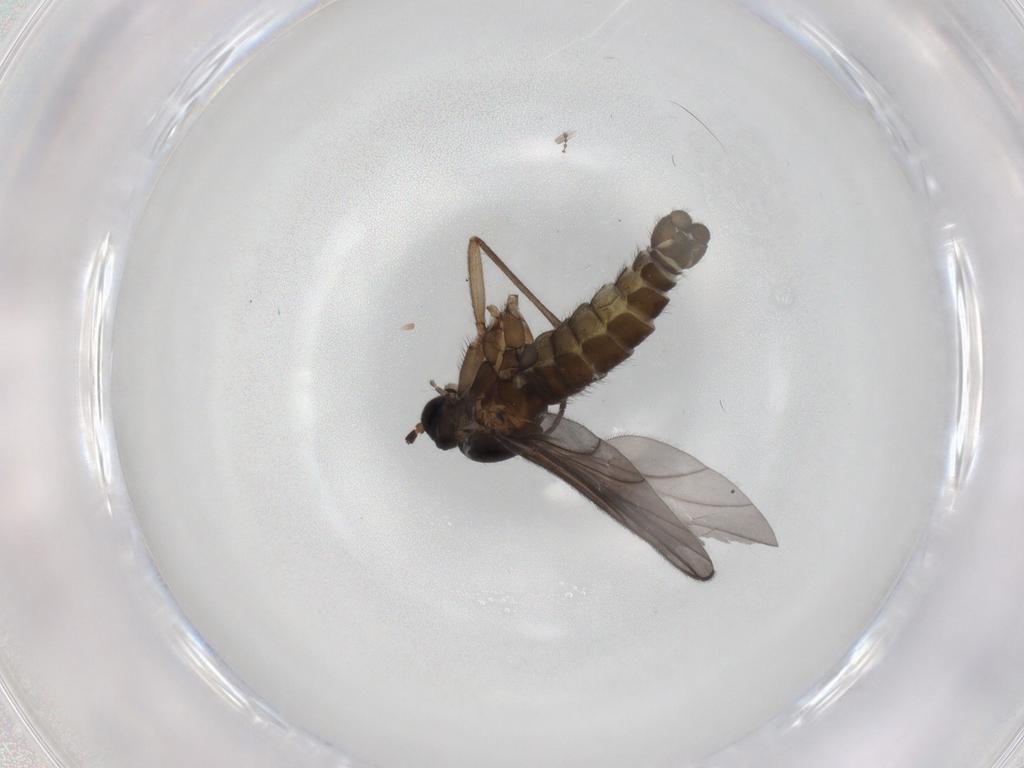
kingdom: Animalia
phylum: Arthropoda
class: Insecta
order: Diptera
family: Sciaridae
